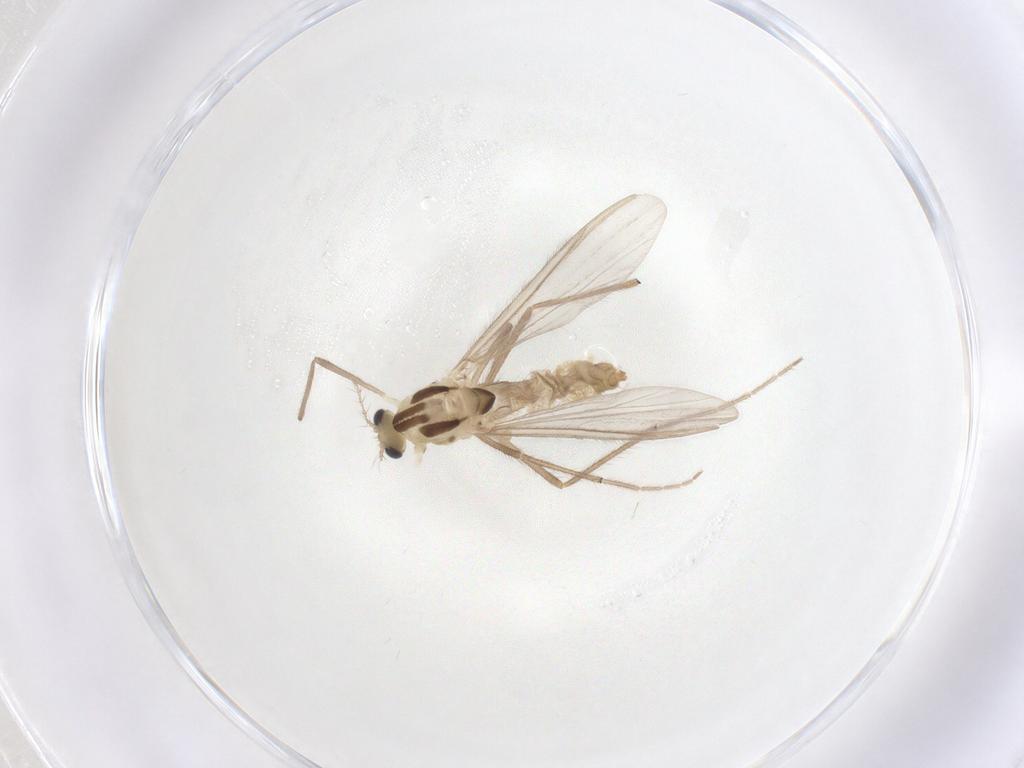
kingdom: Animalia
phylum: Arthropoda
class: Insecta
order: Diptera
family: Chironomidae
